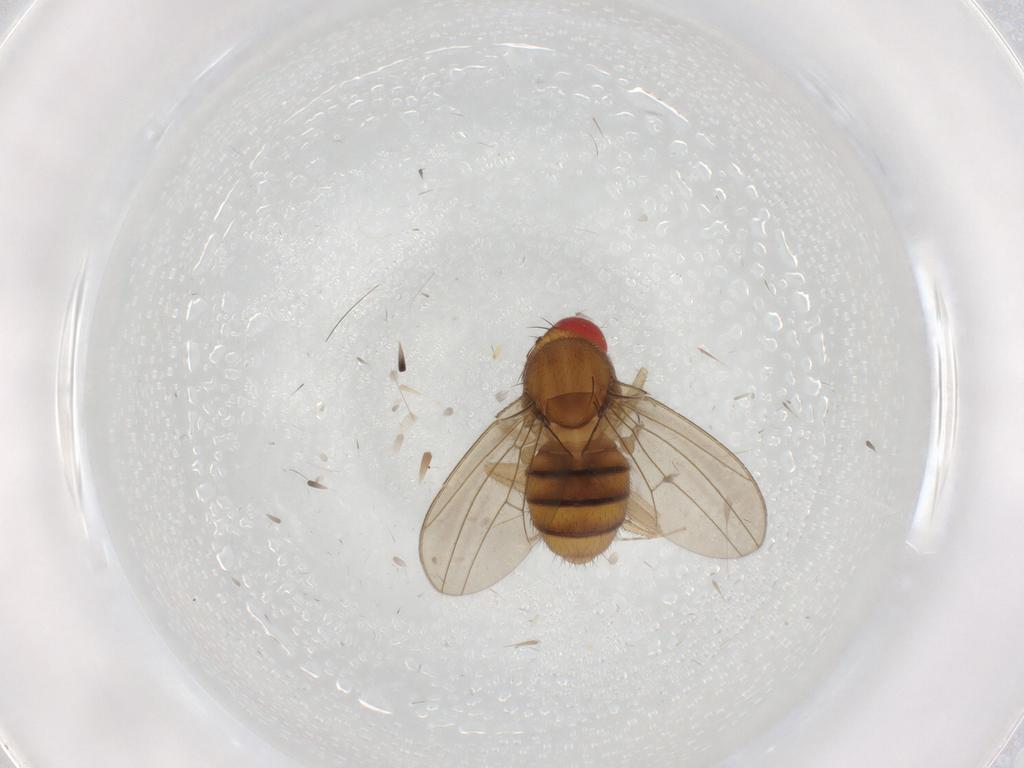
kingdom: Animalia
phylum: Arthropoda
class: Insecta
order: Diptera
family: Drosophilidae
